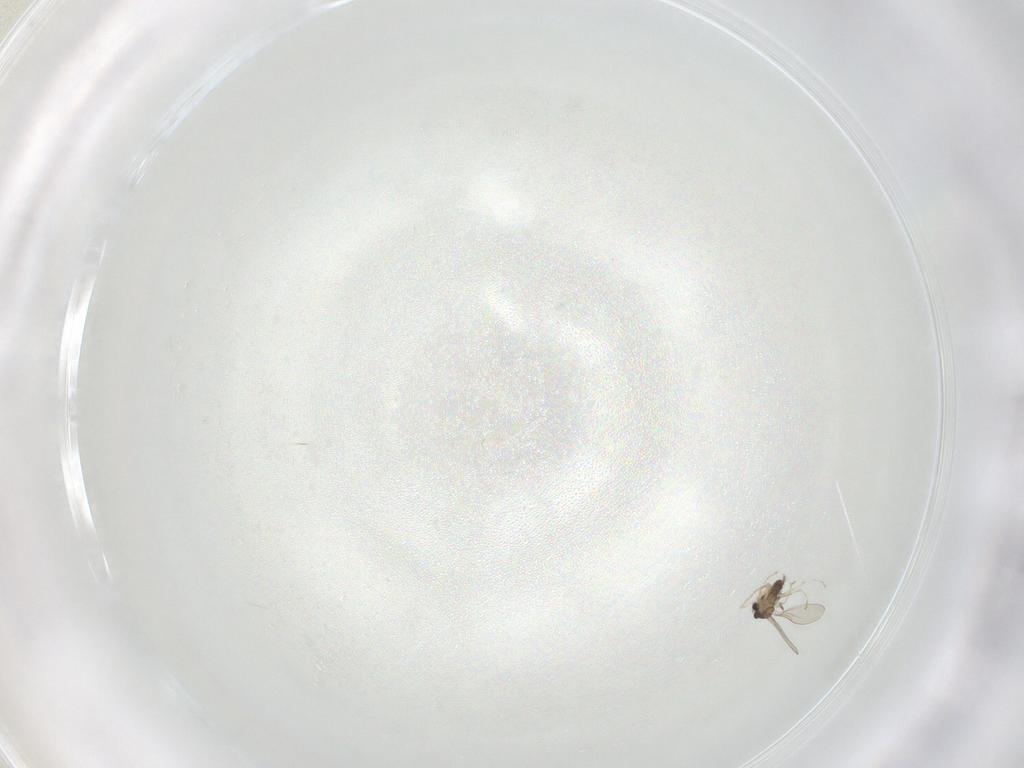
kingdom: Animalia
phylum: Arthropoda
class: Insecta
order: Diptera
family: Cecidomyiidae
